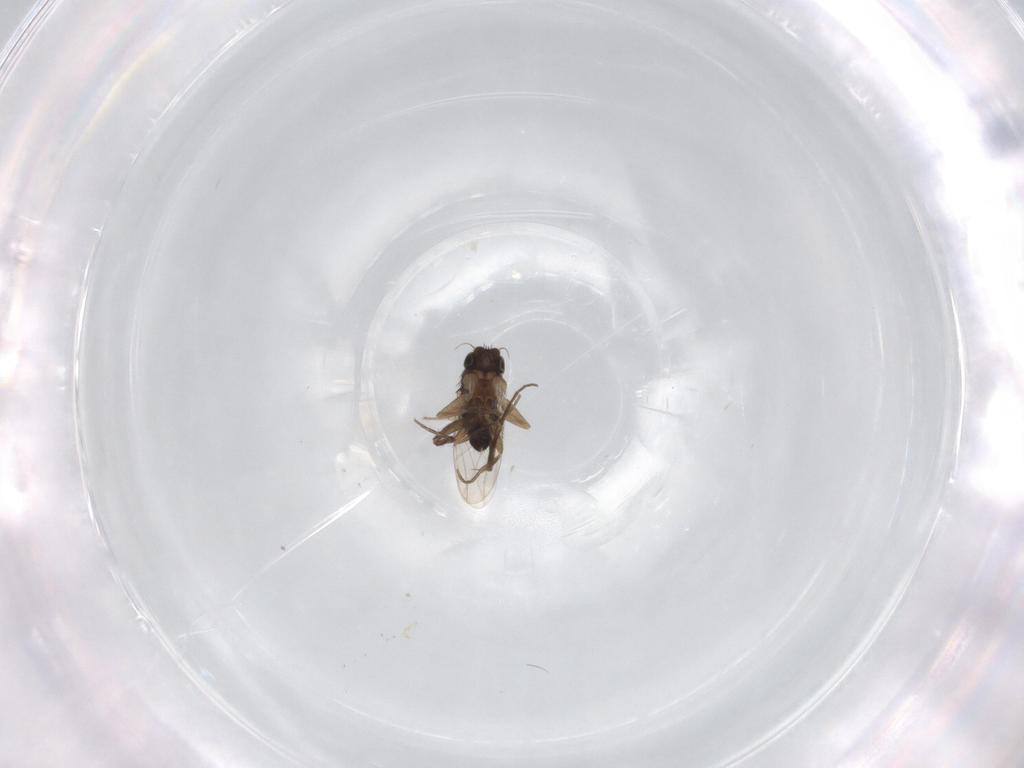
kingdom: Animalia
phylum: Arthropoda
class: Insecta
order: Diptera
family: Phoridae
